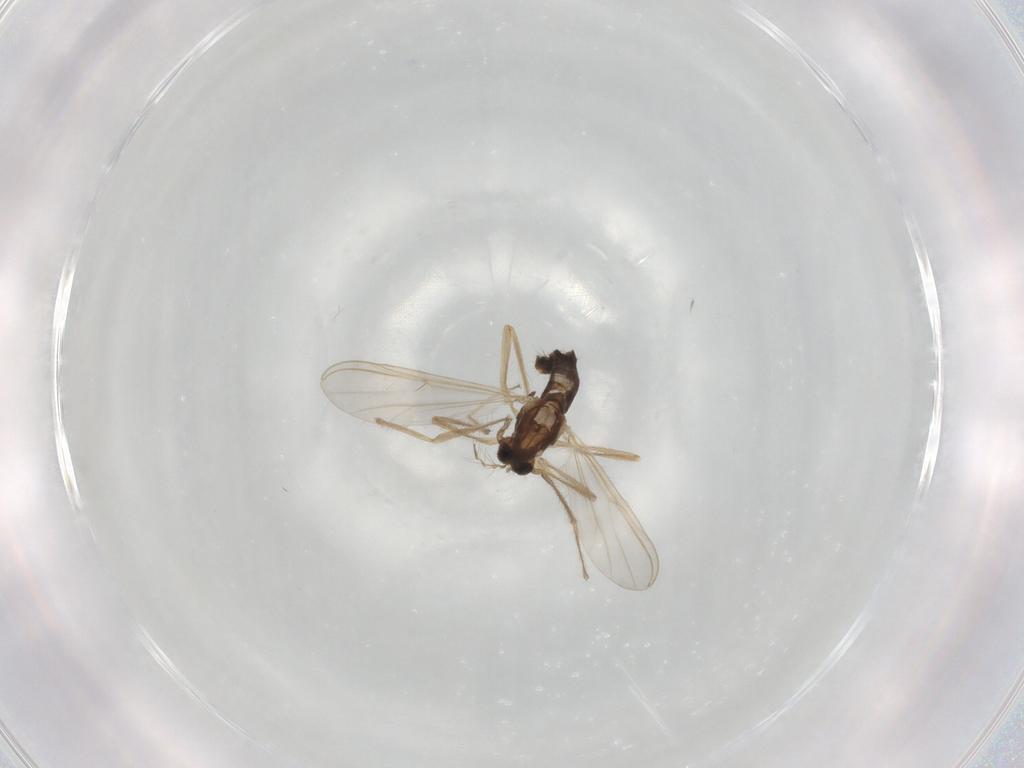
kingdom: Animalia
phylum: Arthropoda
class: Insecta
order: Diptera
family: Chironomidae
